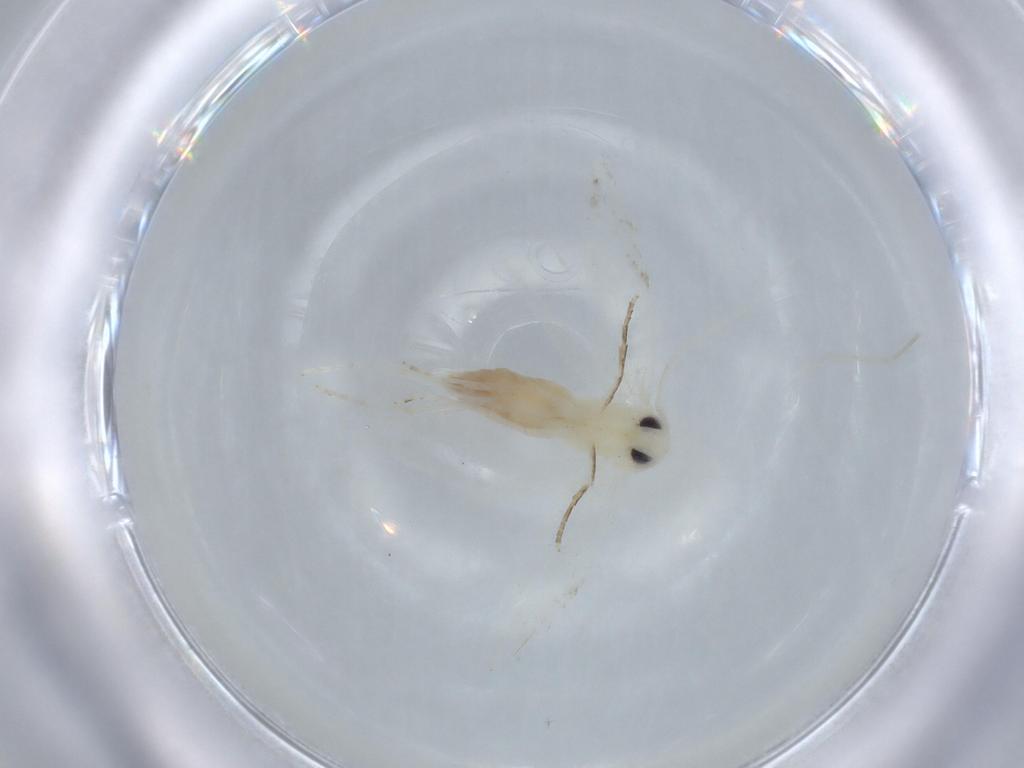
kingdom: Animalia
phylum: Arthropoda
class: Insecta
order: Lepidoptera
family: Lyonetiidae
